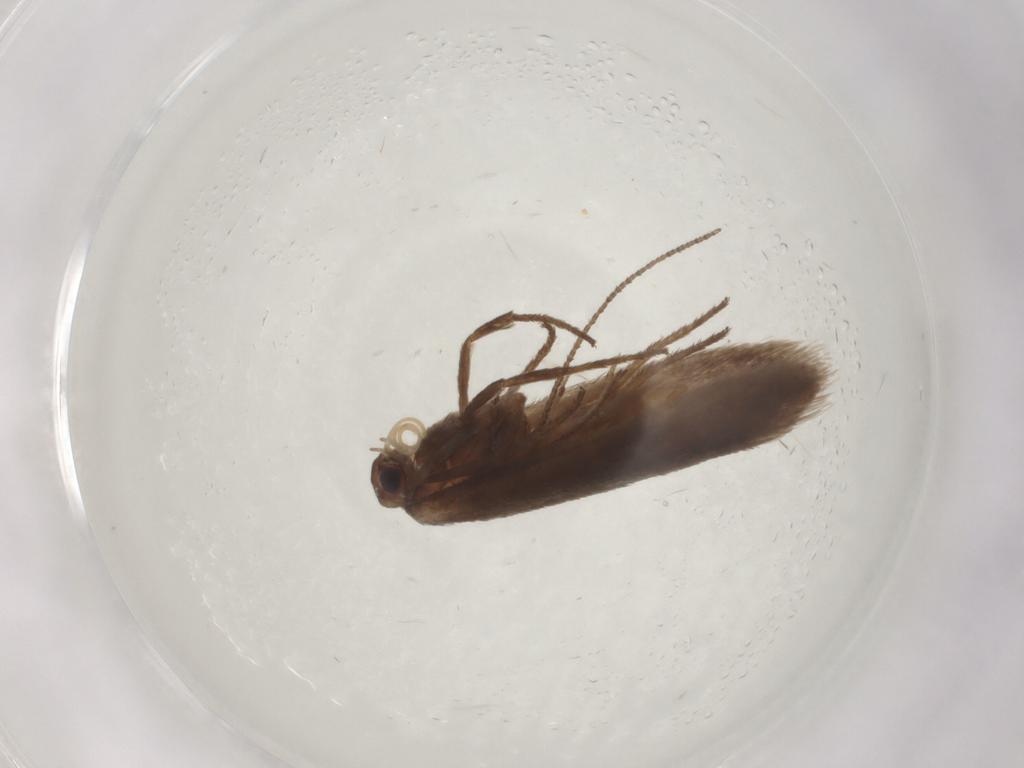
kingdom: Animalia
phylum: Arthropoda
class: Insecta
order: Lepidoptera
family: Limacodidae
